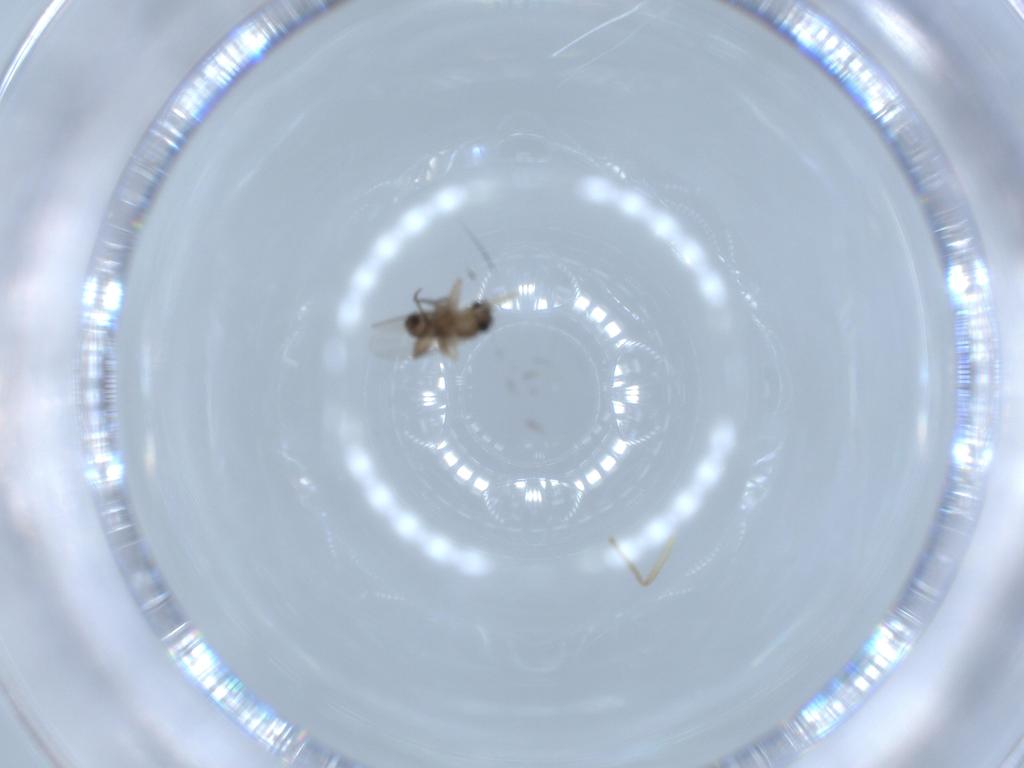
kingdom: Animalia
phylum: Arthropoda
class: Insecta
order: Diptera
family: Phoridae
